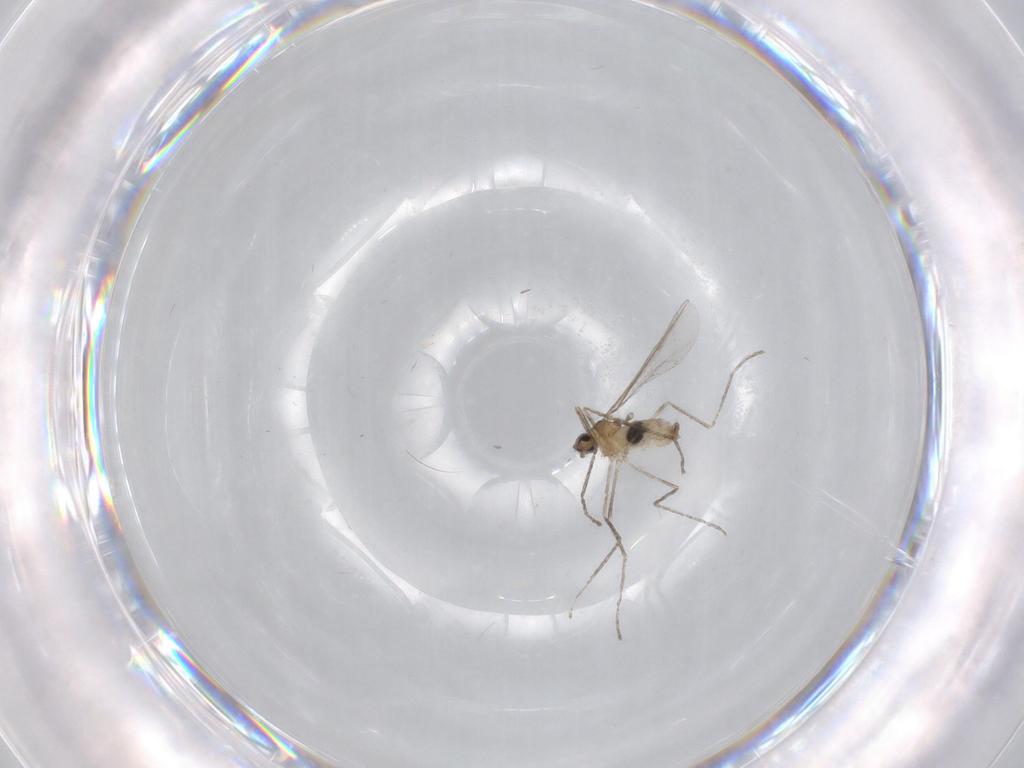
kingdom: Animalia
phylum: Arthropoda
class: Insecta
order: Diptera
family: Cecidomyiidae
